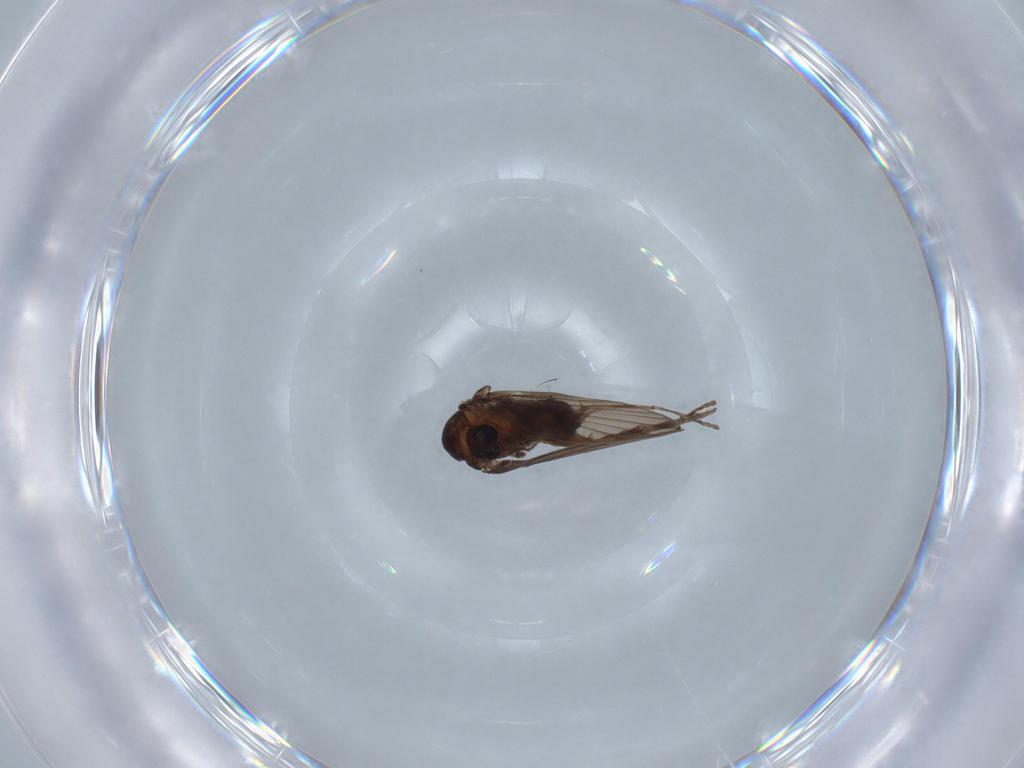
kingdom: Animalia
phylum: Arthropoda
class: Insecta
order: Diptera
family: Psychodidae
